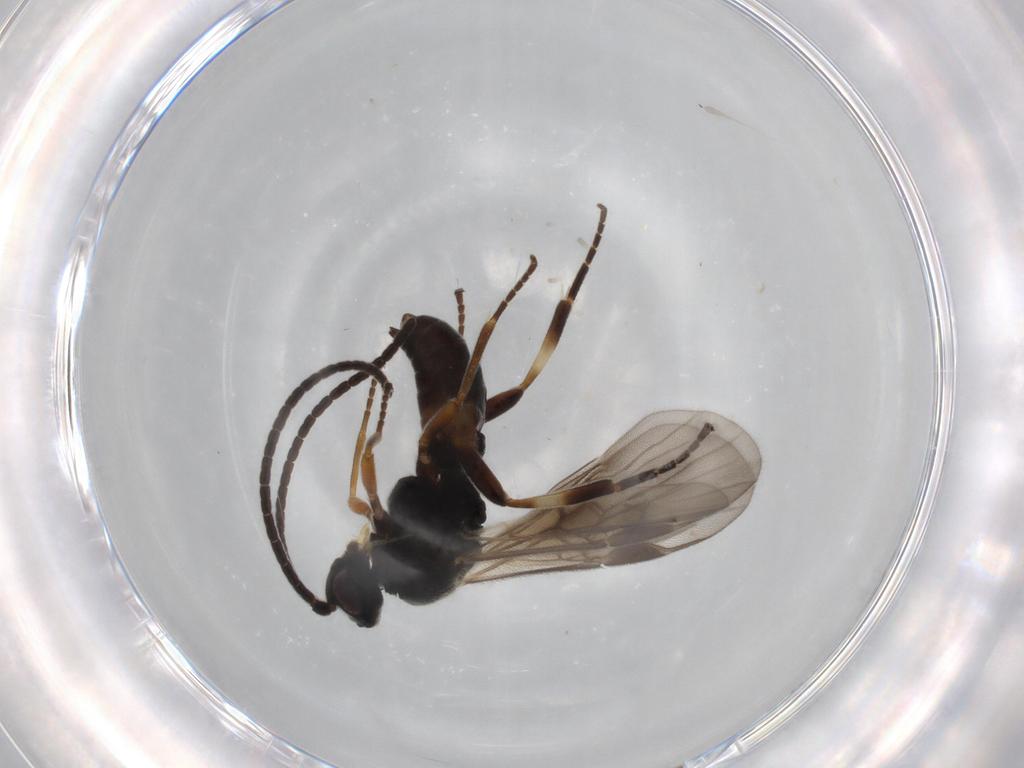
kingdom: Animalia
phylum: Arthropoda
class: Insecta
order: Hymenoptera
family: Braconidae
